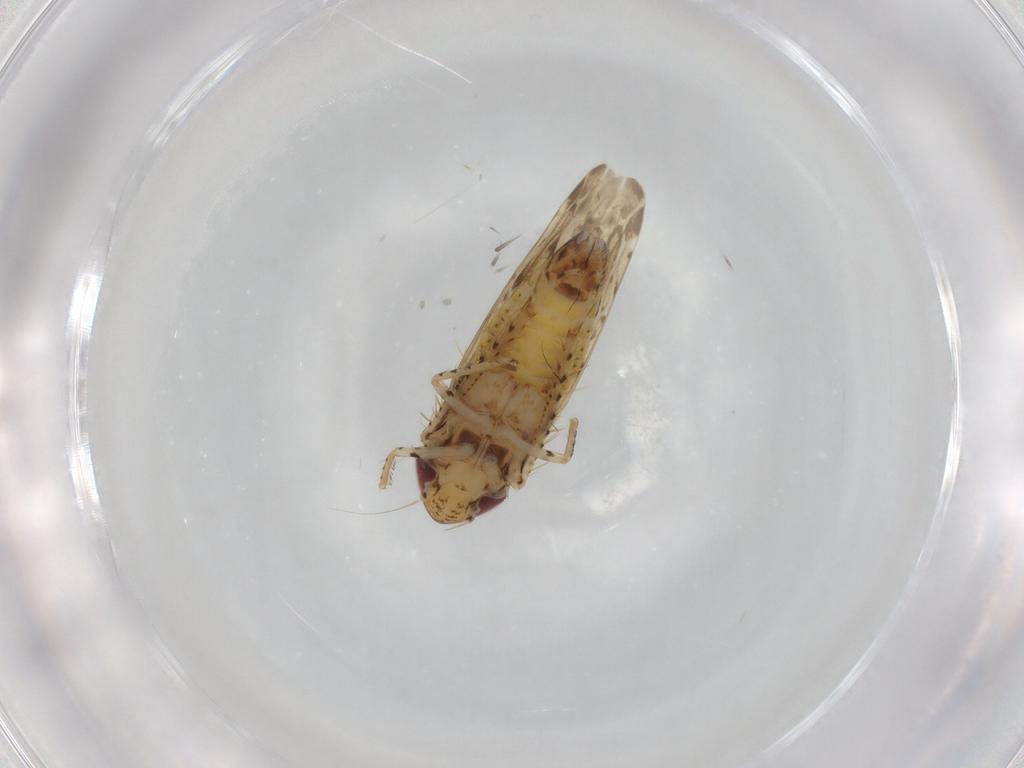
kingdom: Animalia
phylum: Arthropoda
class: Insecta
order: Hemiptera
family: Cicadellidae
